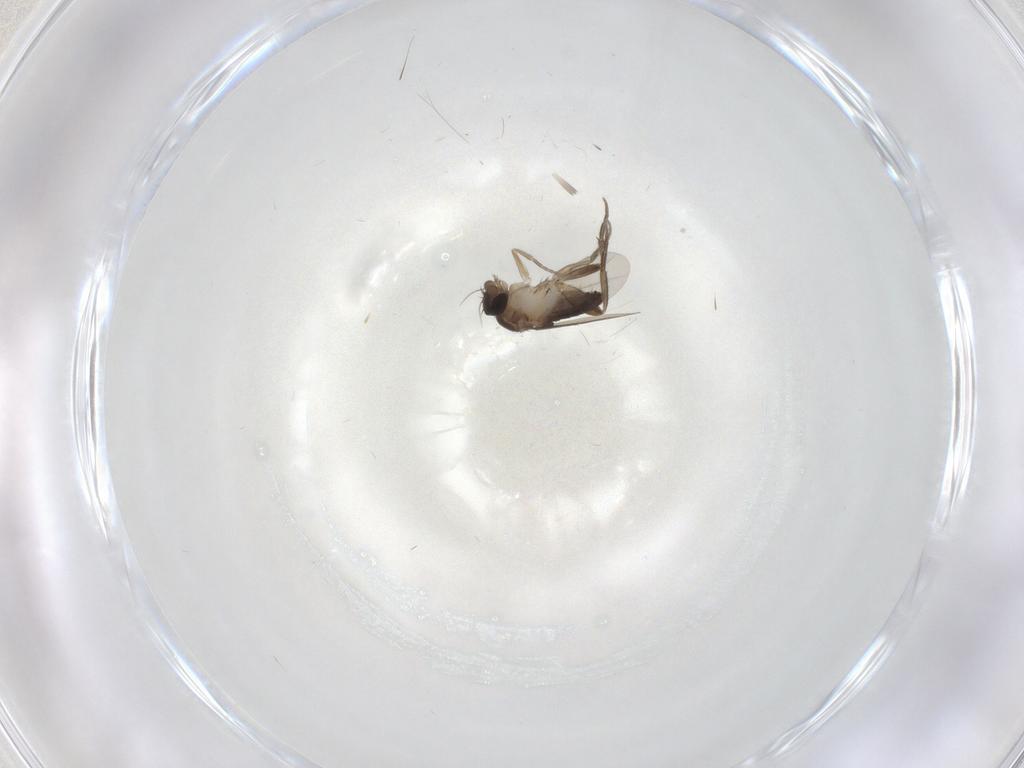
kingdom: Animalia
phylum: Arthropoda
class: Insecta
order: Diptera
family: Phoridae
